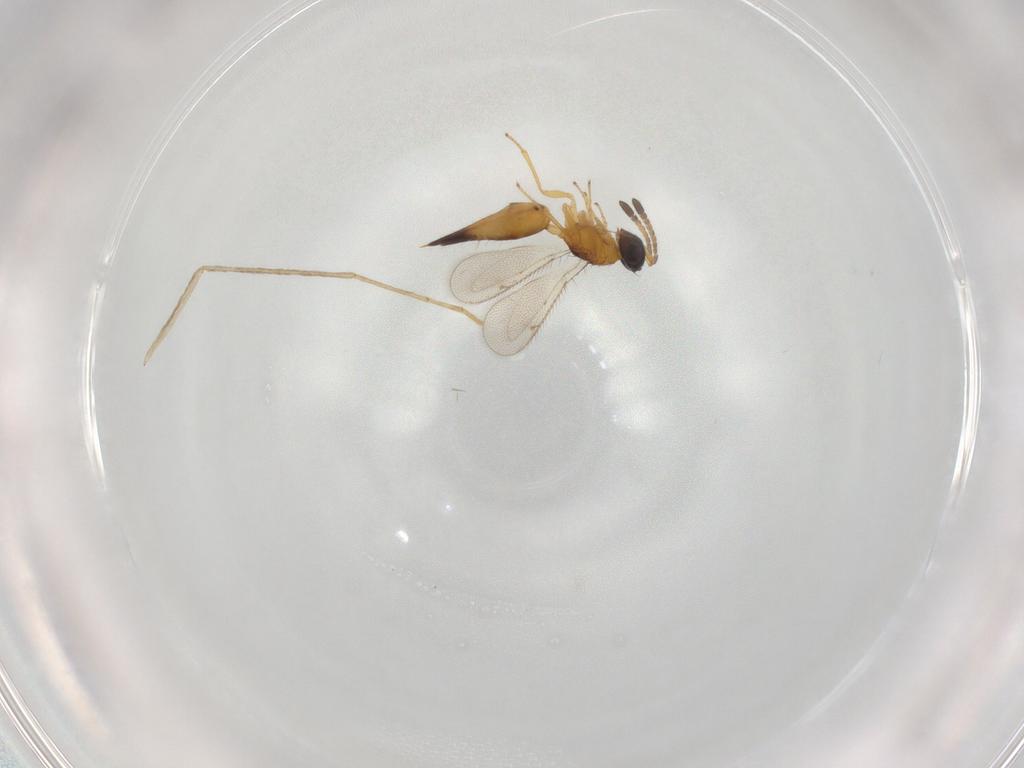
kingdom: Animalia
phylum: Arthropoda
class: Insecta
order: Hymenoptera
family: Eulophidae
